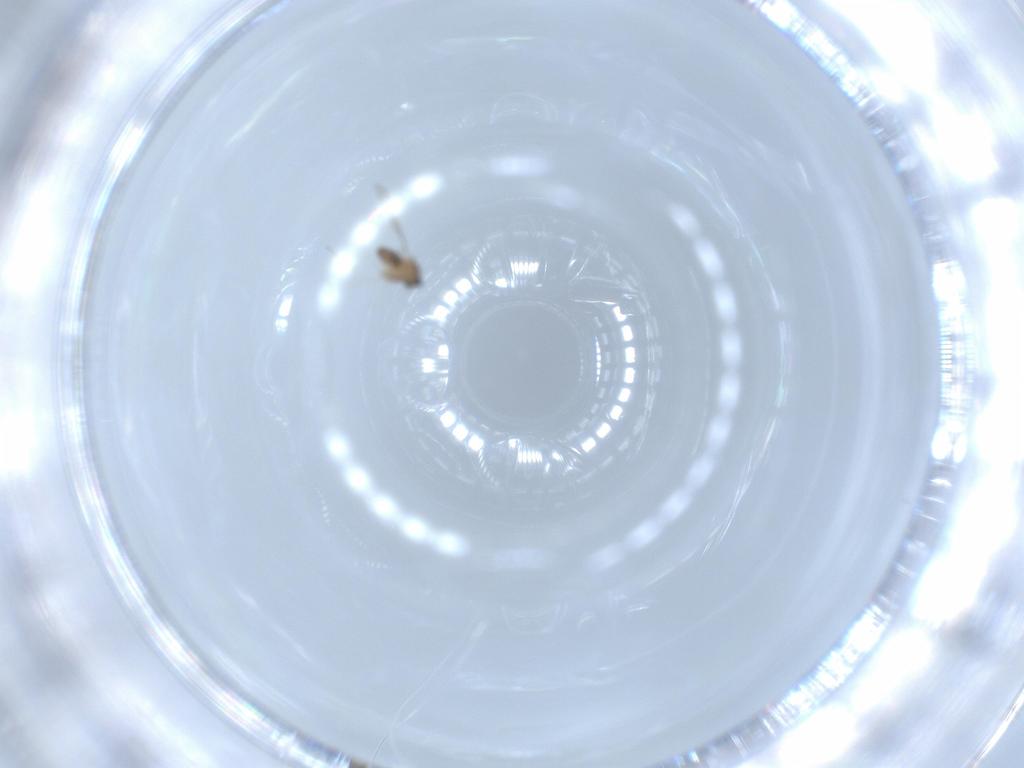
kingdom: Animalia
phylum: Arthropoda
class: Insecta
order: Diptera
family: Cecidomyiidae
